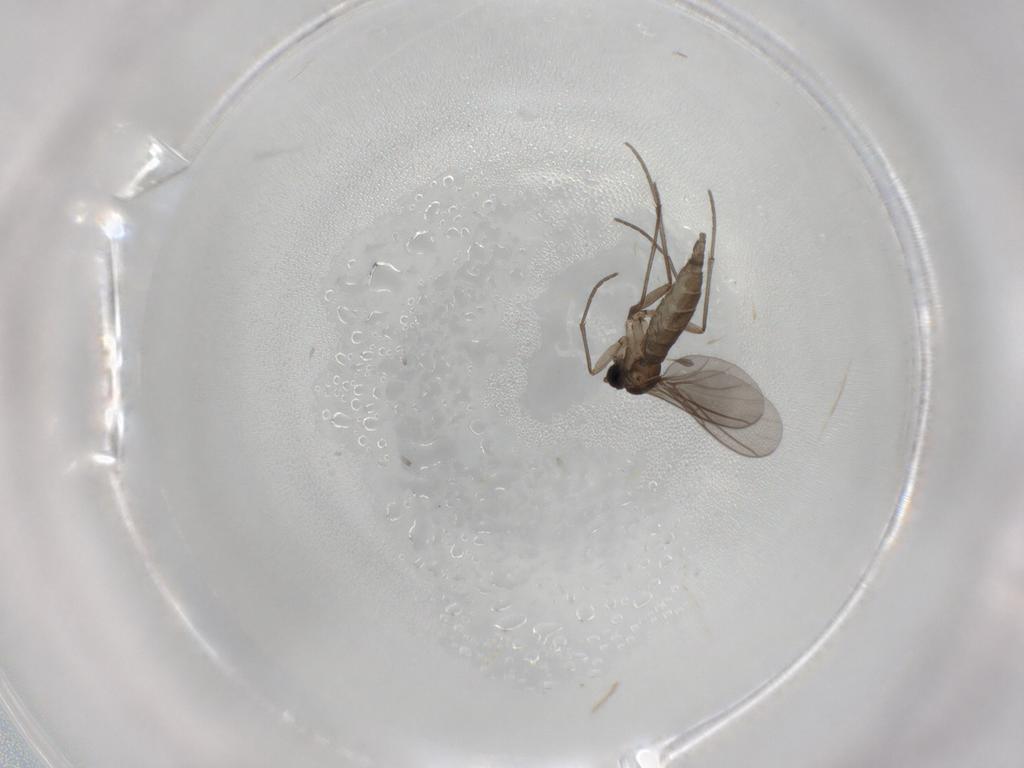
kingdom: Animalia
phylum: Arthropoda
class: Insecta
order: Diptera
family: Sciaridae
